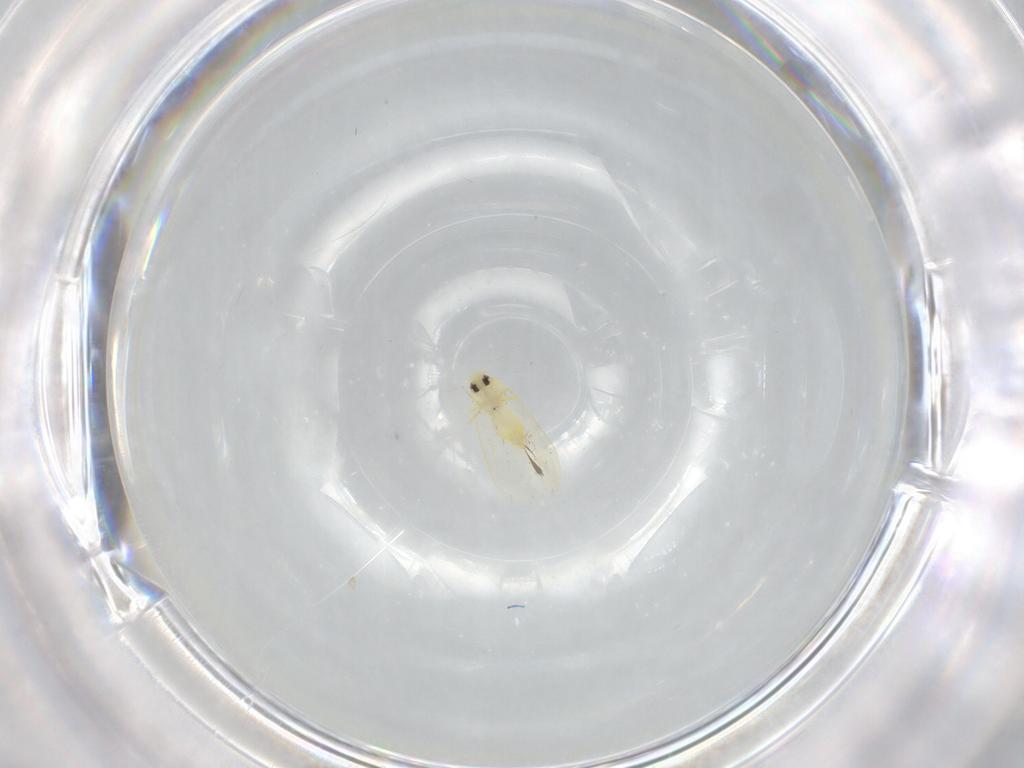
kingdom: Animalia
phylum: Arthropoda
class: Insecta
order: Hemiptera
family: Aleyrodidae
